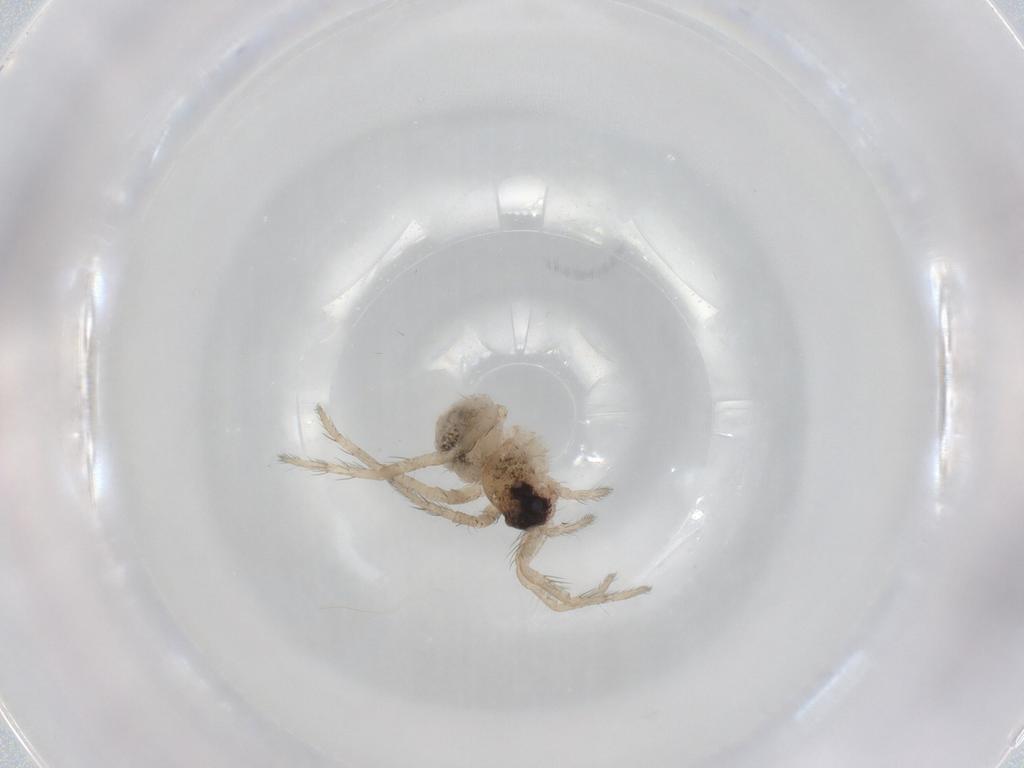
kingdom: Animalia
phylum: Arthropoda
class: Arachnida
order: Araneae
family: Lycosidae
